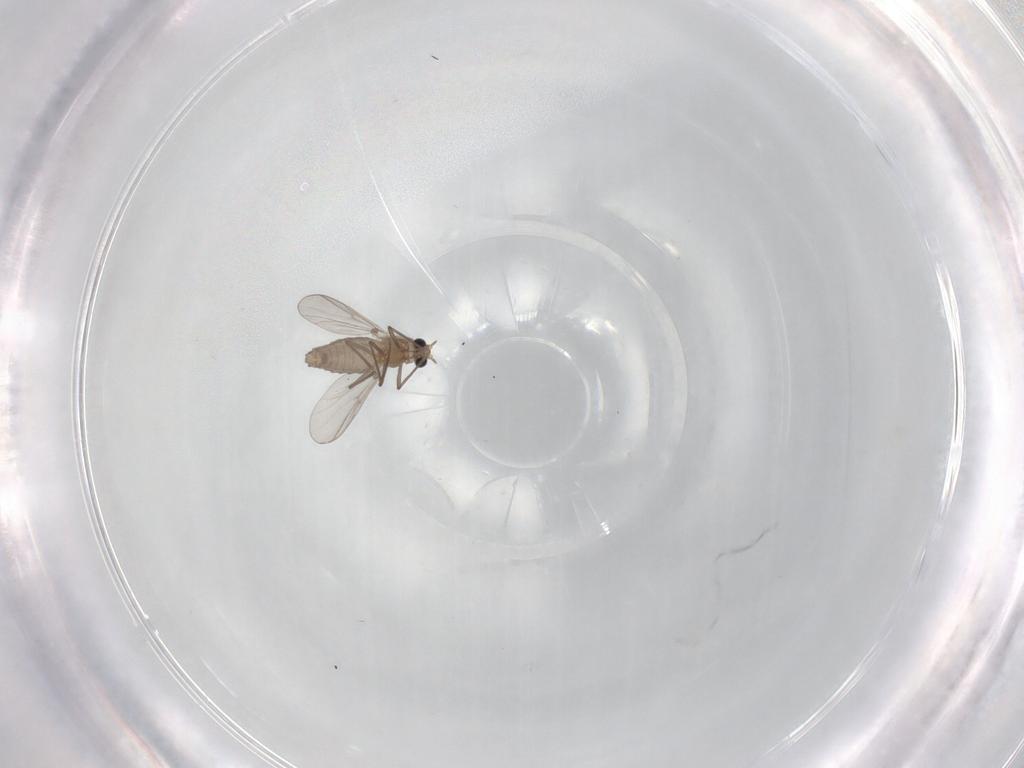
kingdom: Animalia
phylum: Arthropoda
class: Insecta
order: Diptera
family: Chironomidae
